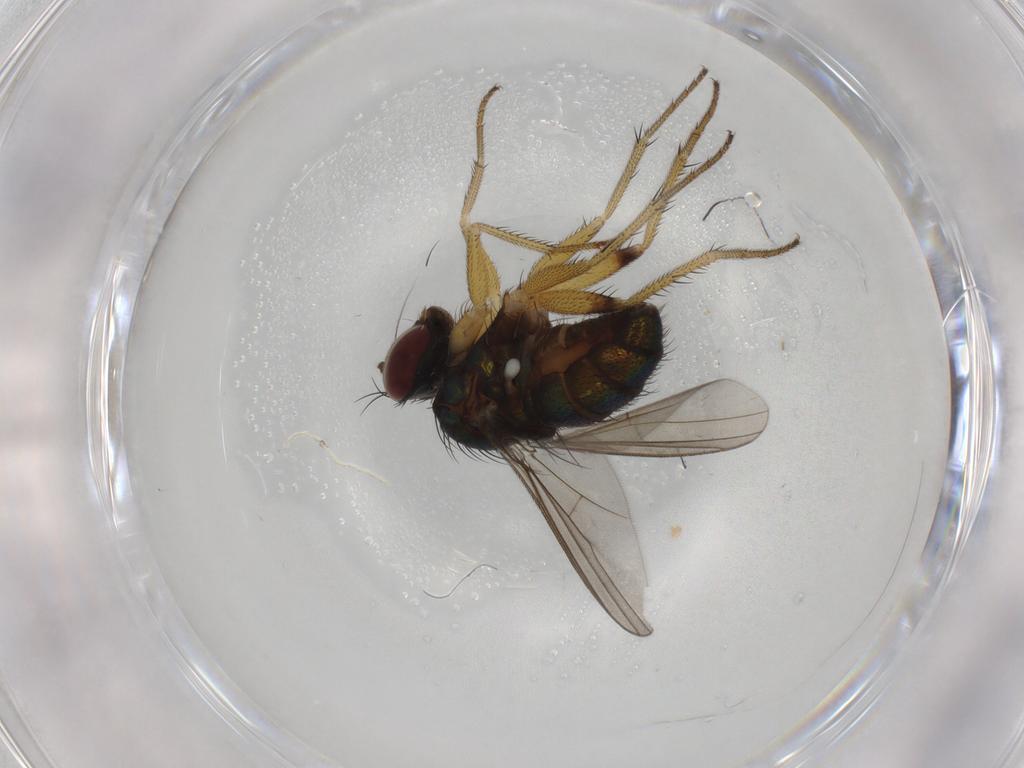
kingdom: Animalia
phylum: Arthropoda
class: Insecta
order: Diptera
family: Dolichopodidae
